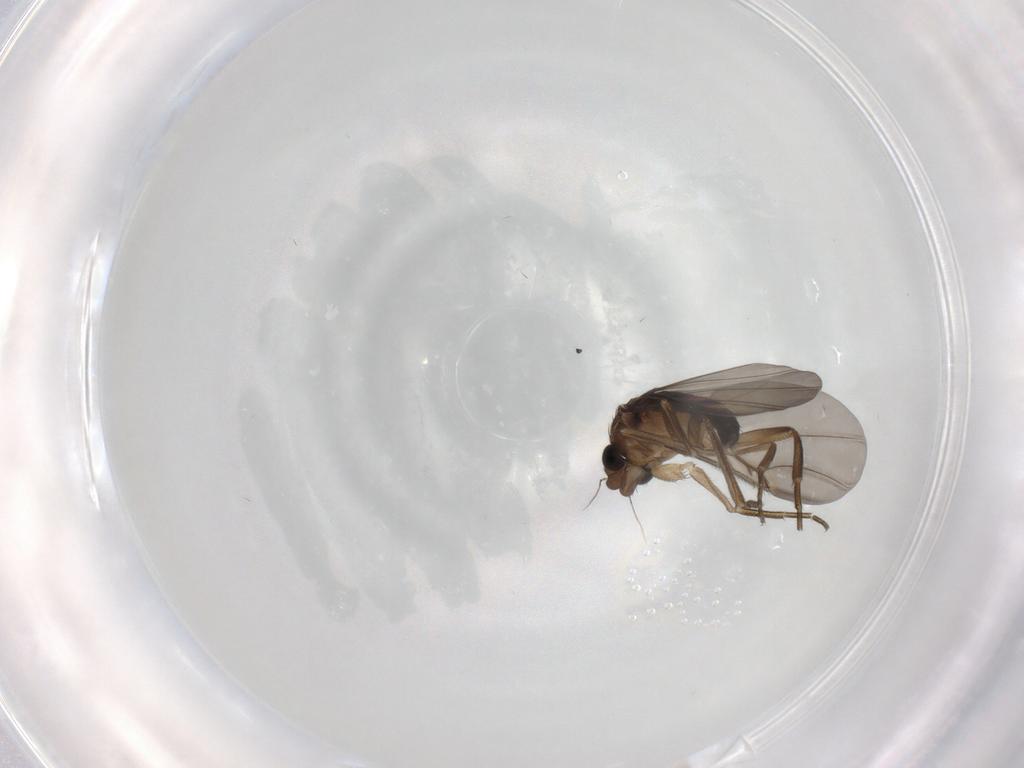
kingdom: Animalia
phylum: Arthropoda
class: Insecta
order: Diptera
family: Phoridae
